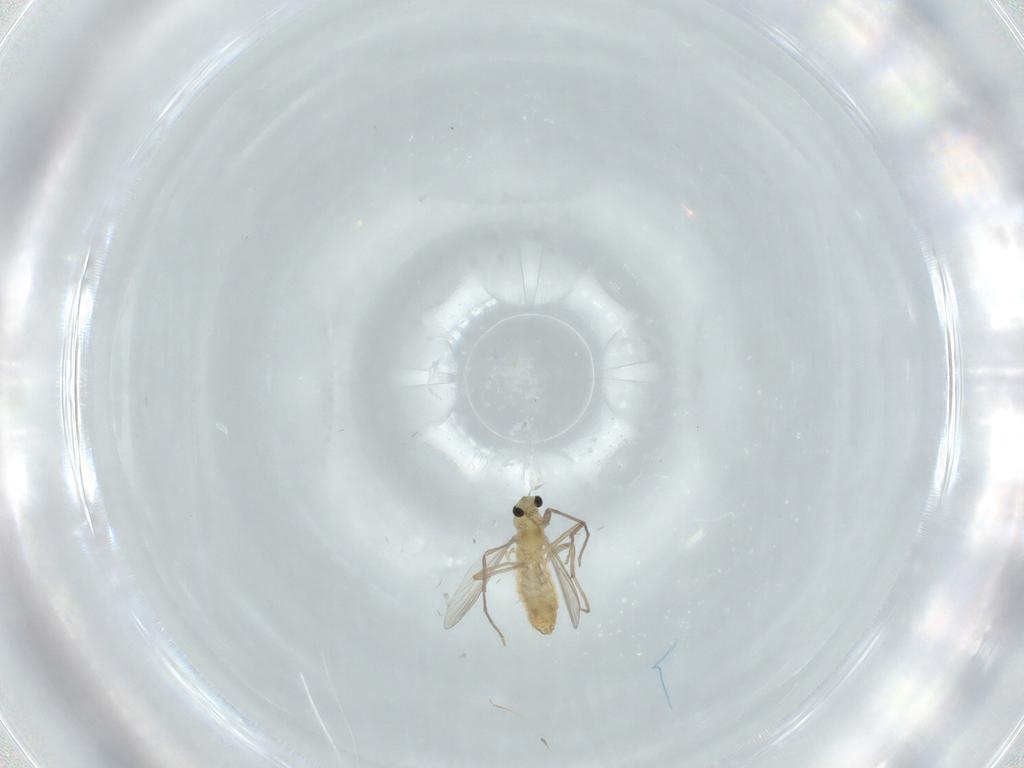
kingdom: Animalia
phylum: Arthropoda
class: Insecta
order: Diptera
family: Chironomidae
